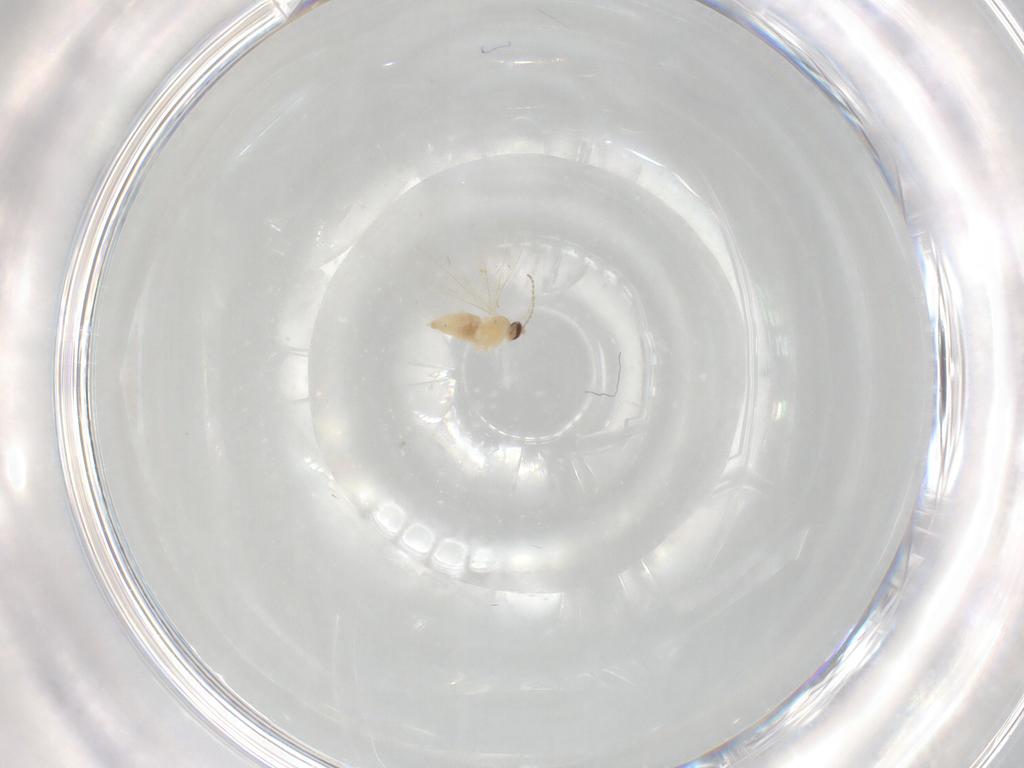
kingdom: Animalia
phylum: Arthropoda
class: Insecta
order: Diptera
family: Cecidomyiidae
